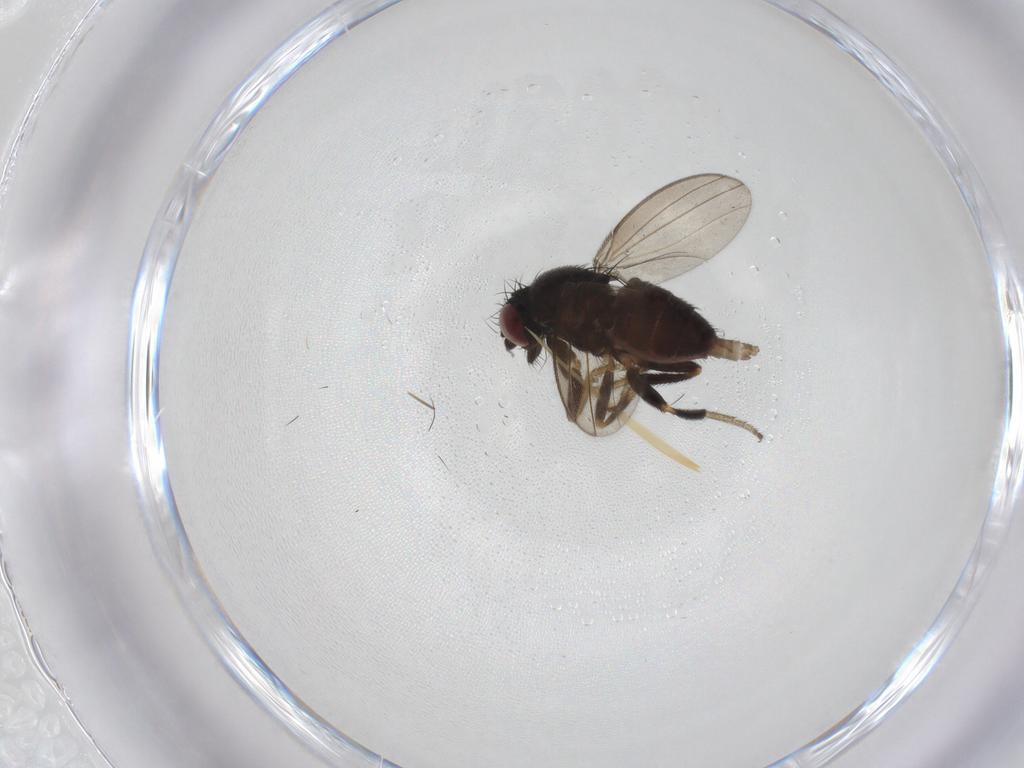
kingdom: Animalia
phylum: Arthropoda
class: Insecta
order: Diptera
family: Milichiidae
